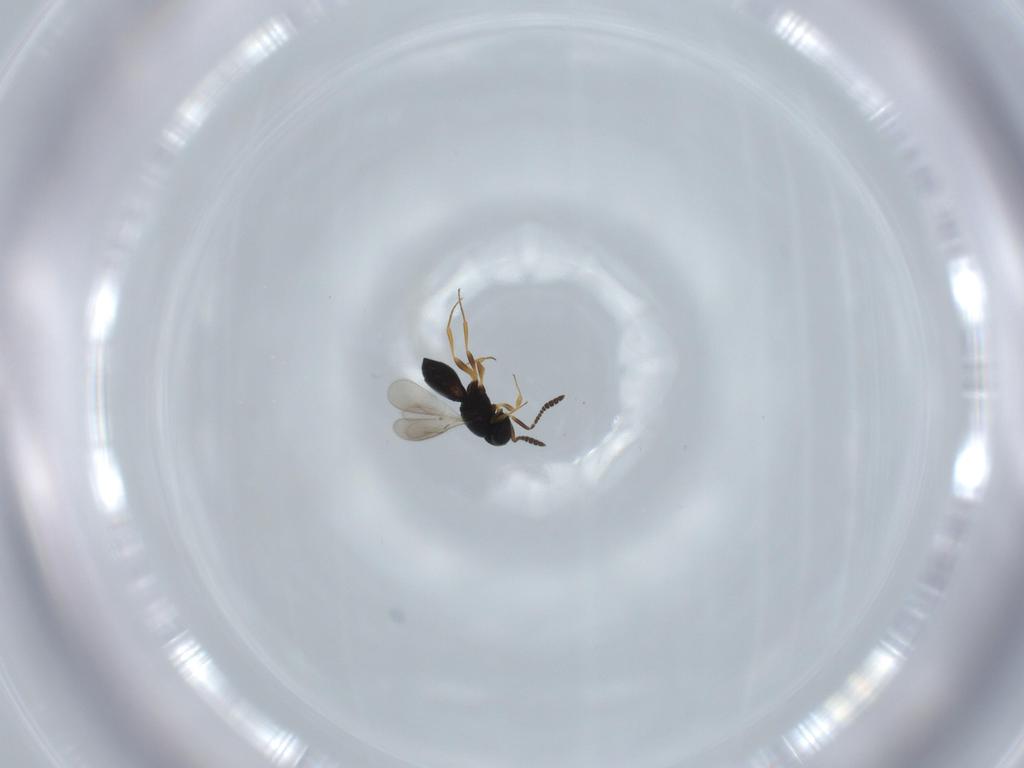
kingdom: Animalia
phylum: Arthropoda
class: Insecta
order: Hymenoptera
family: Scelionidae
